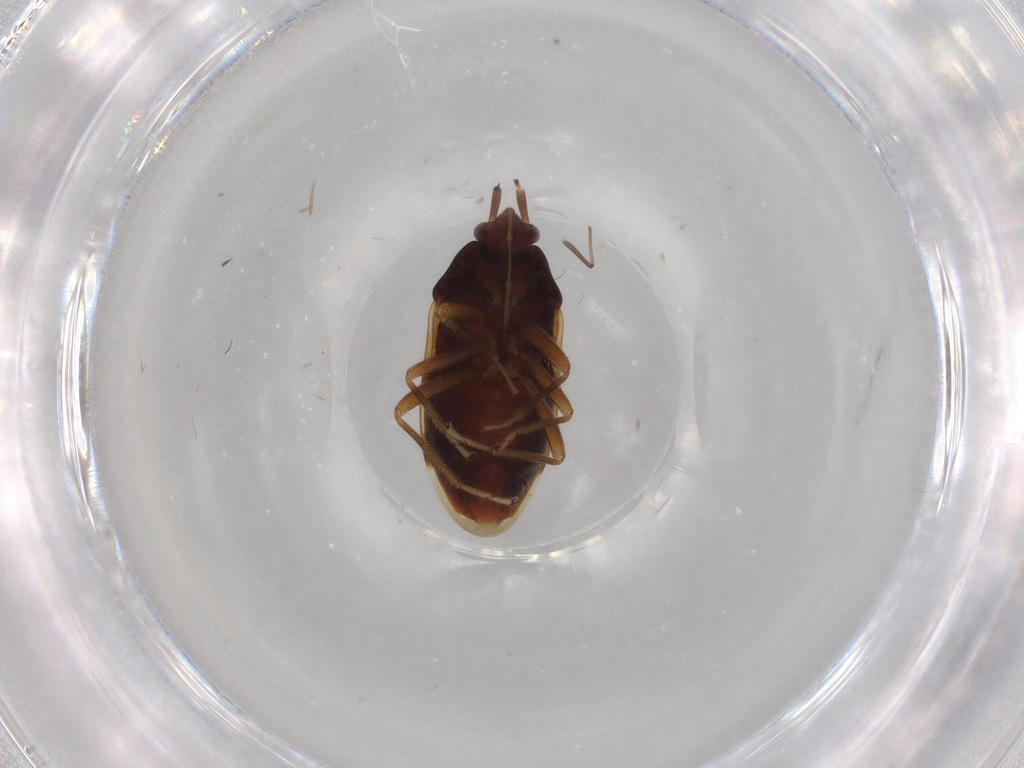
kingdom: Animalia
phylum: Arthropoda
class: Insecta
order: Hemiptera
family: Rhyparochromidae
